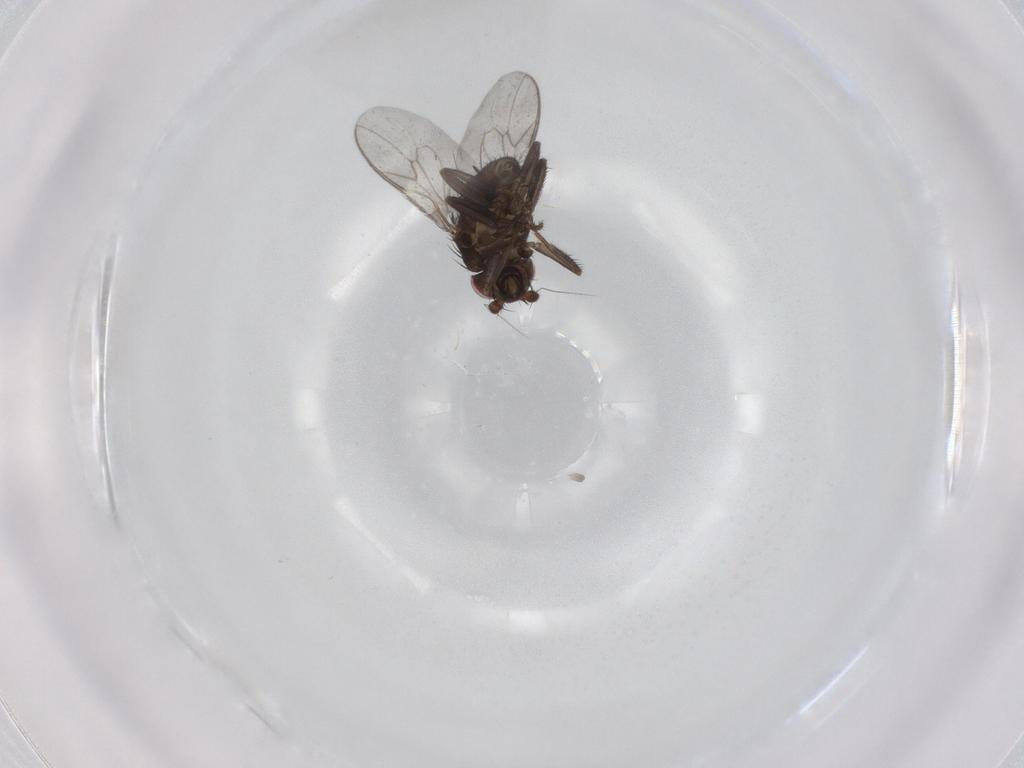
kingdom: Animalia
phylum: Arthropoda
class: Insecta
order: Diptera
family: Sphaeroceridae
